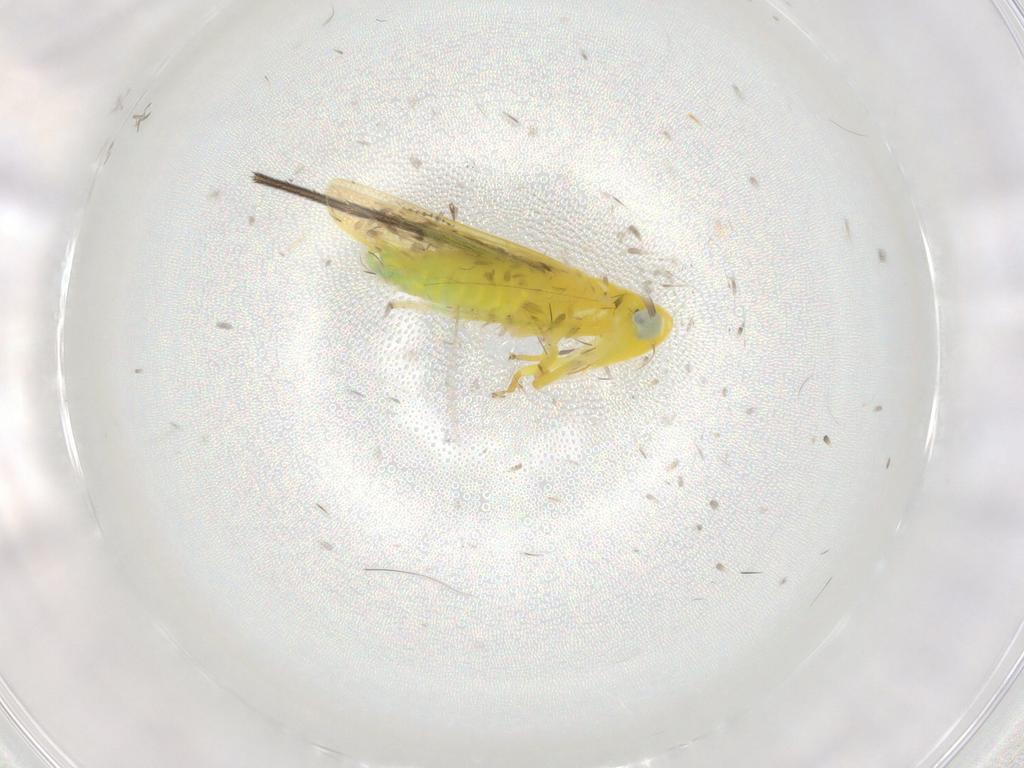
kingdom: Animalia
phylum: Arthropoda
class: Insecta
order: Hemiptera
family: Cicadellidae
